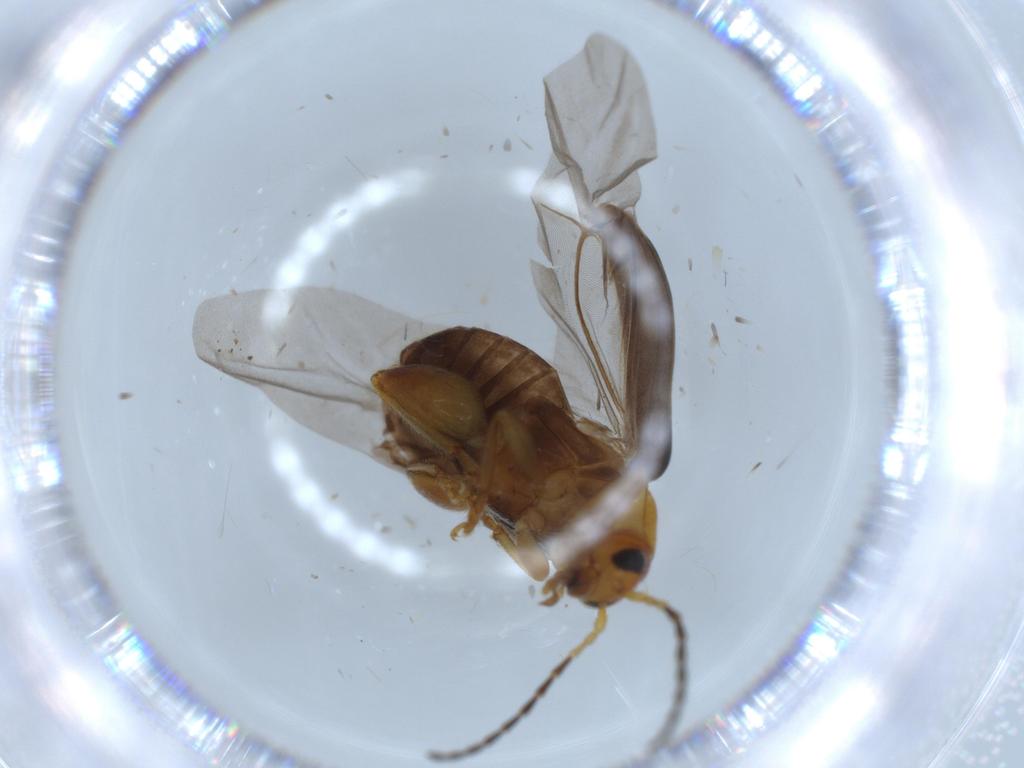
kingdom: Animalia
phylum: Arthropoda
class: Insecta
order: Coleoptera
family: Chrysomelidae
